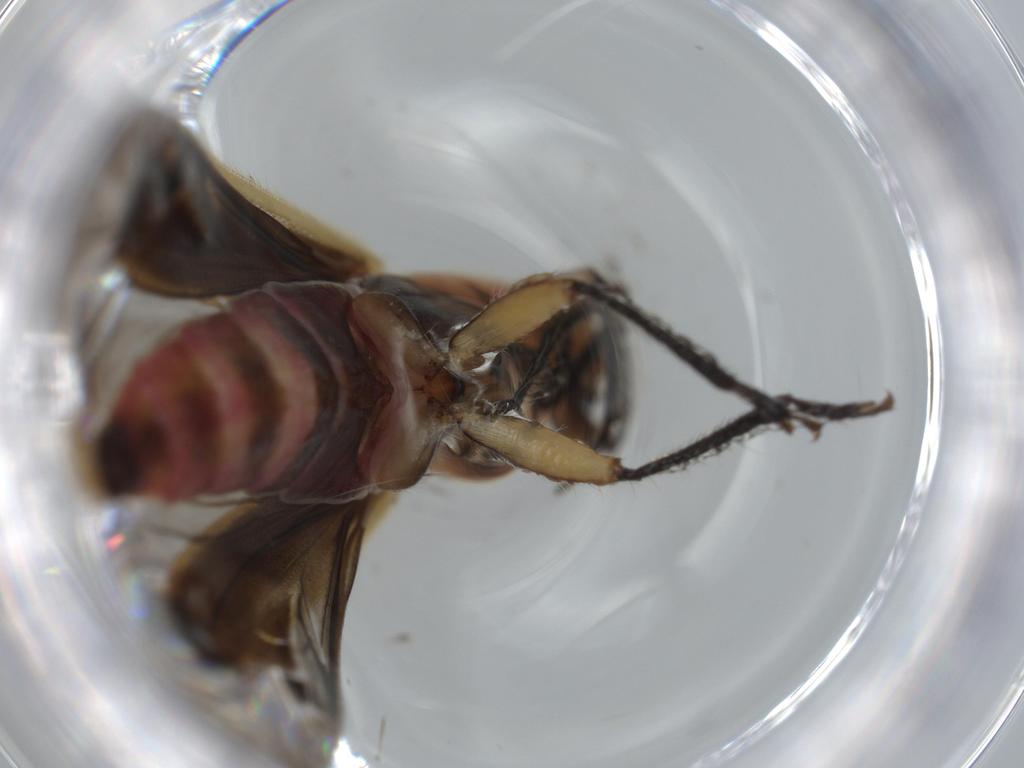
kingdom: Animalia
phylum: Arthropoda
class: Insecta
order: Coleoptera
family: Cleridae
